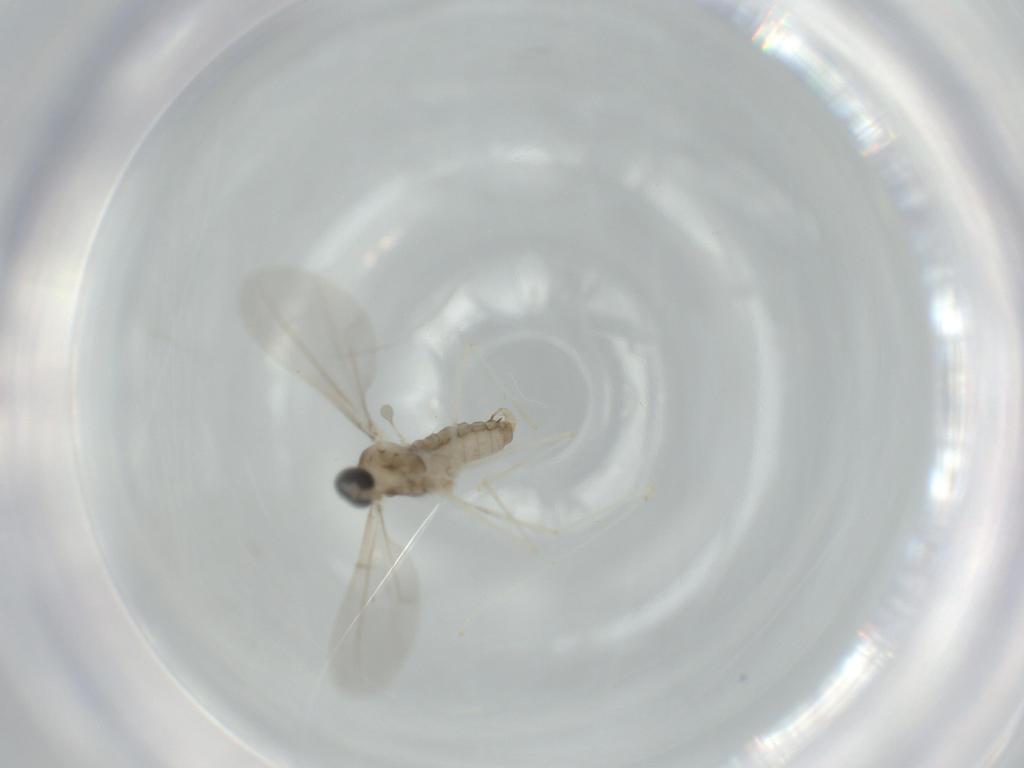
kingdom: Animalia
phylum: Arthropoda
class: Insecta
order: Diptera
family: Cecidomyiidae
